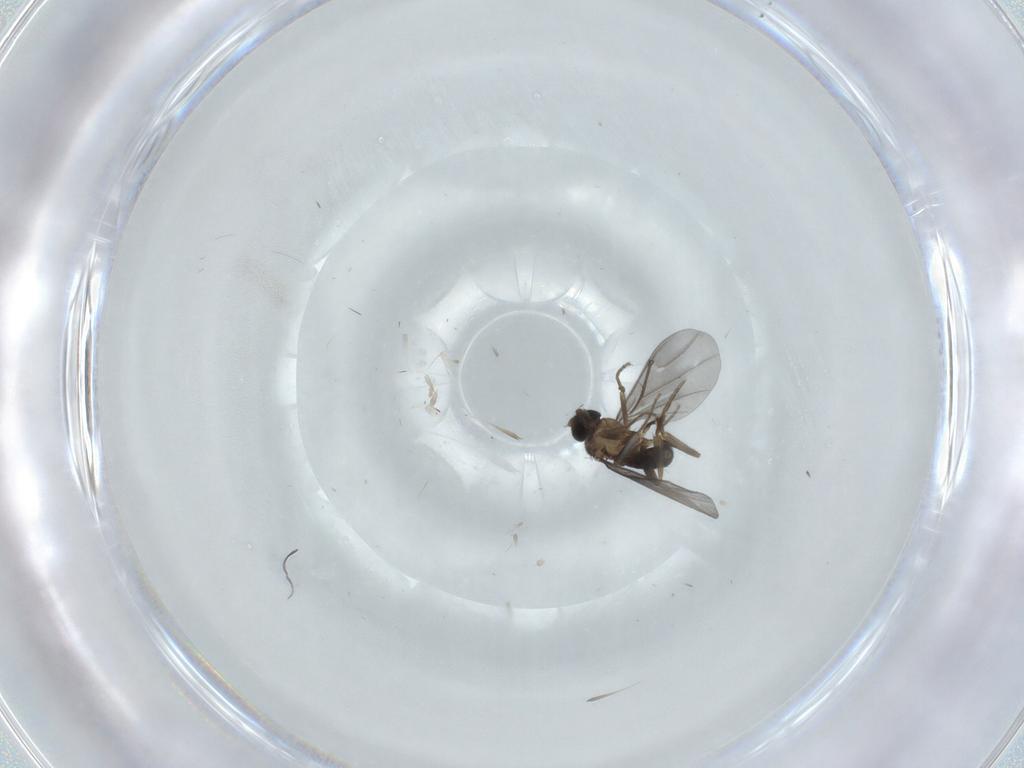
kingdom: Animalia
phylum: Arthropoda
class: Insecta
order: Diptera
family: Phoridae
